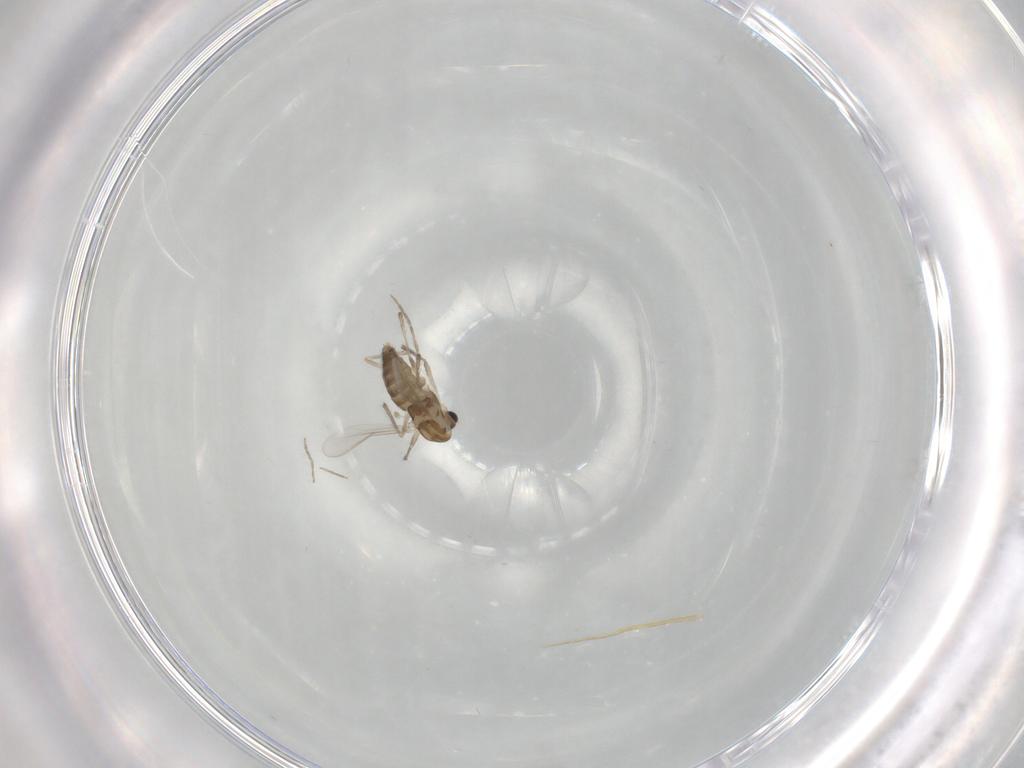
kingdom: Animalia
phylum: Arthropoda
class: Insecta
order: Diptera
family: Chironomidae
